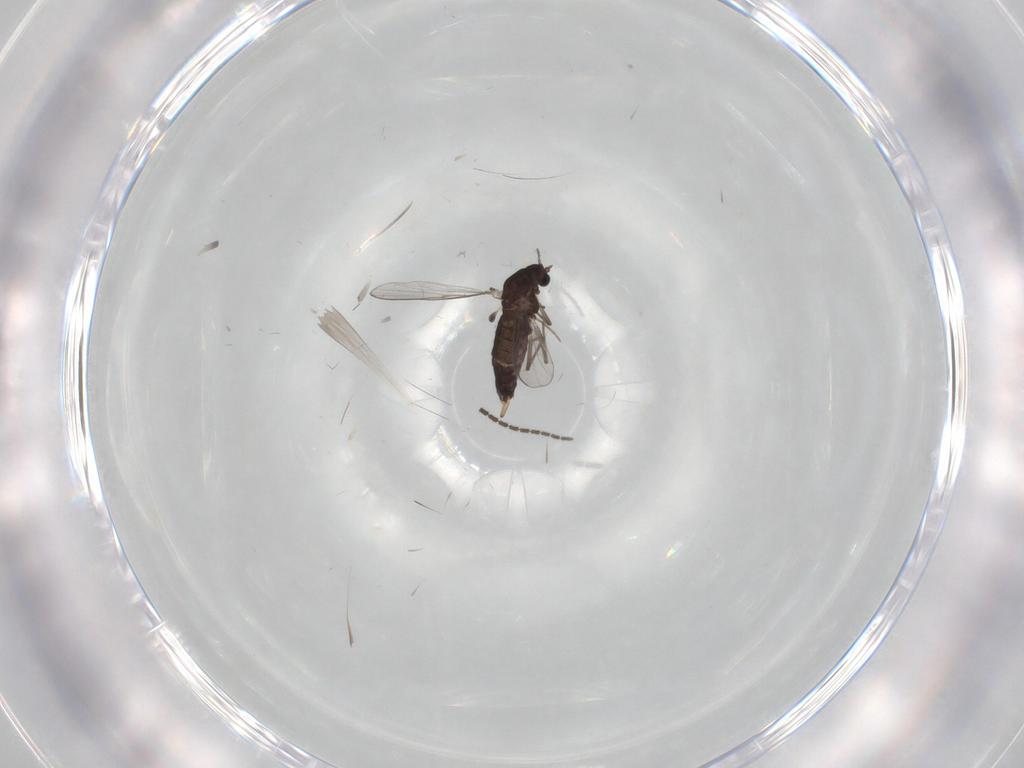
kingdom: Animalia
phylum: Arthropoda
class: Insecta
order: Diptera
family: Chironomidae
